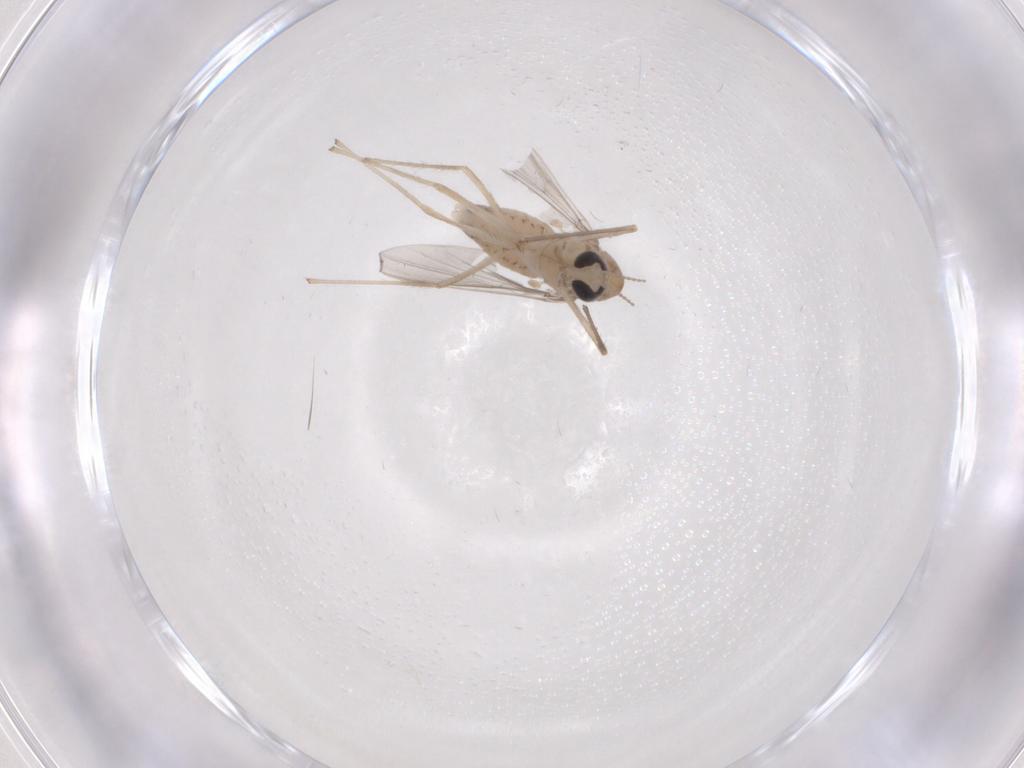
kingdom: Animalia
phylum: Arthropoda
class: Insecta
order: Diptera
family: Chironomidae
